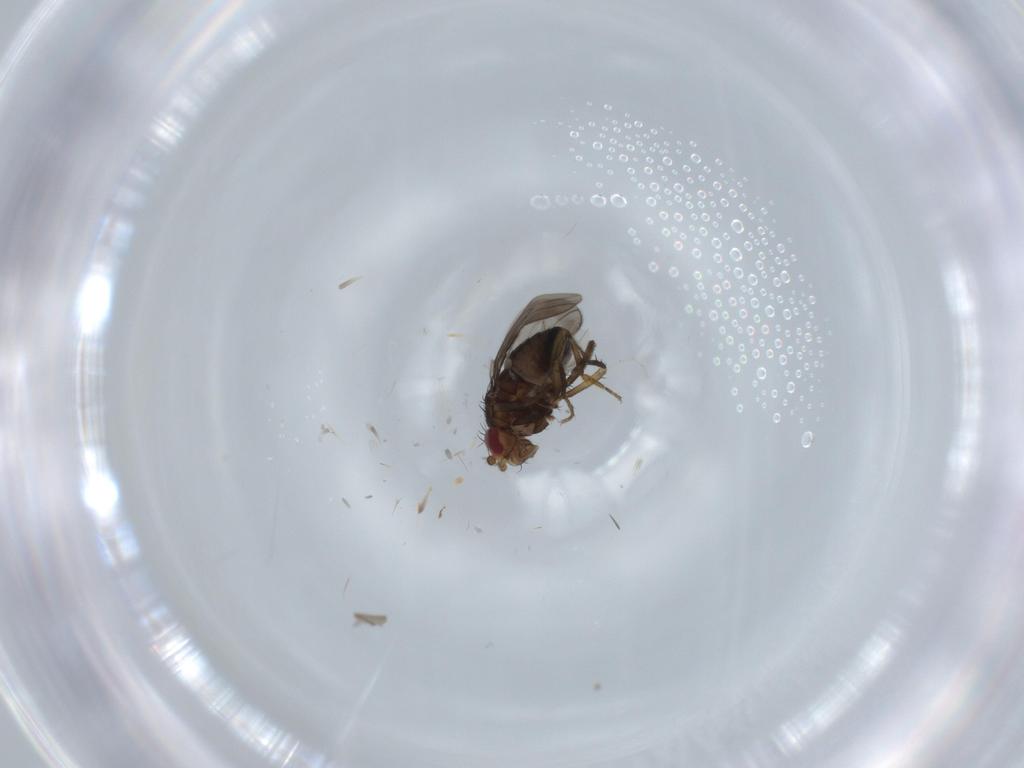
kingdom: Animalia
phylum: Arthropoda
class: Insecta
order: Diptera
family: Sphaeroceridae
